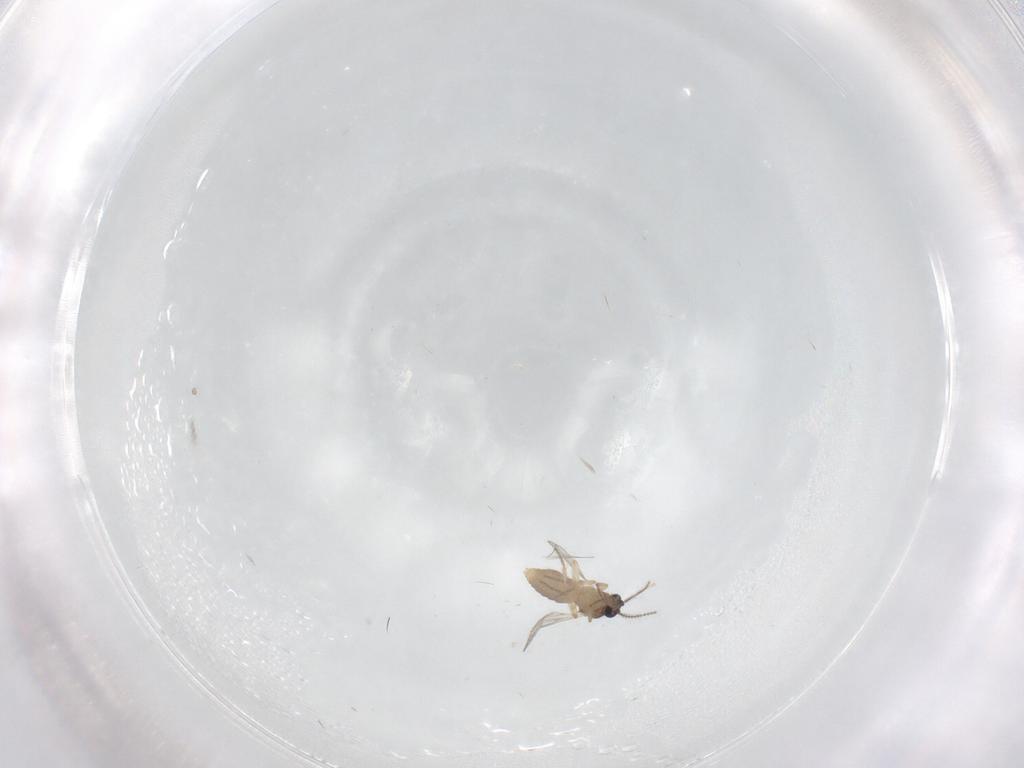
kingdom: Animalia
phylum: Arthropoda
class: Insecta
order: Diptera
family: Ceratopogonidae
